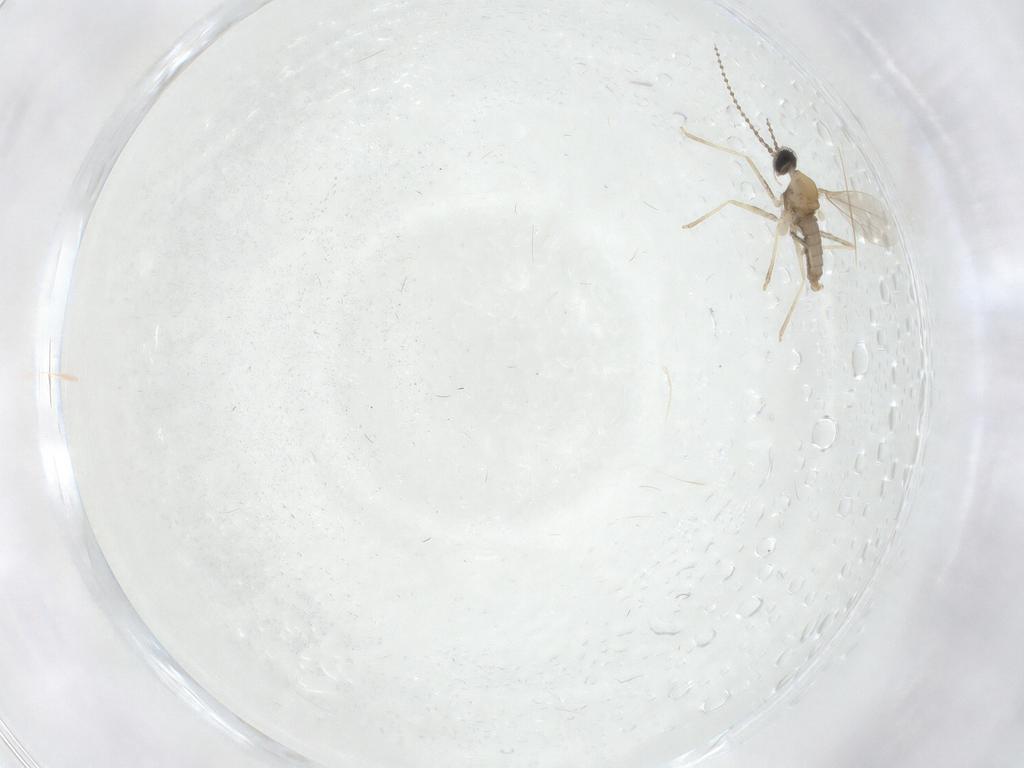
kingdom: Animalia
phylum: Arthropoda
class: Insecta
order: Diptera
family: Cecidomyiidae
